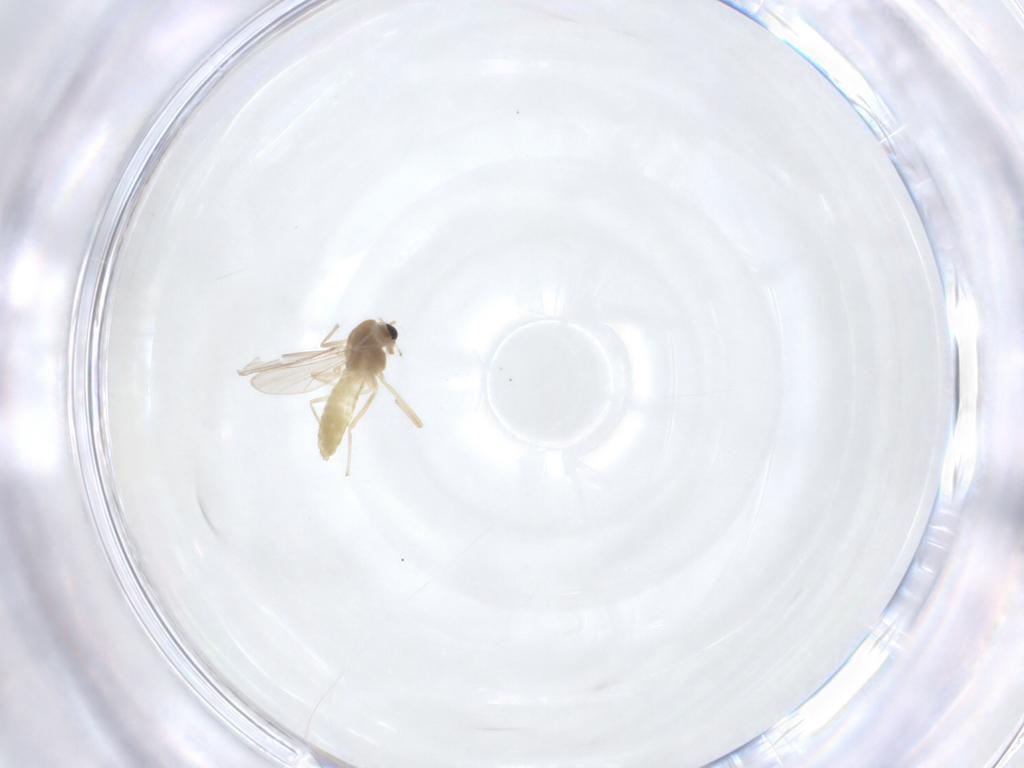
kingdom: Animalia
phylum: Arthropoda
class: Insecta
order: Diptera
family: Chironomidae
